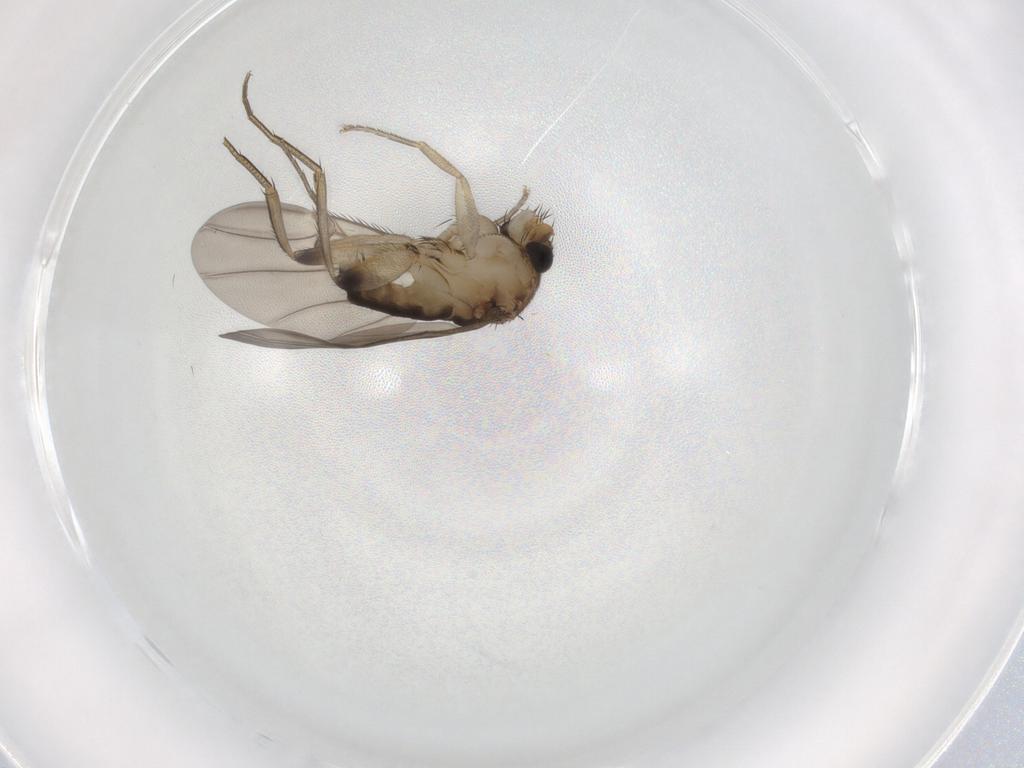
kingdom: Animalia
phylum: Arthropoda
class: Insecta
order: Diptera
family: Phoridae
